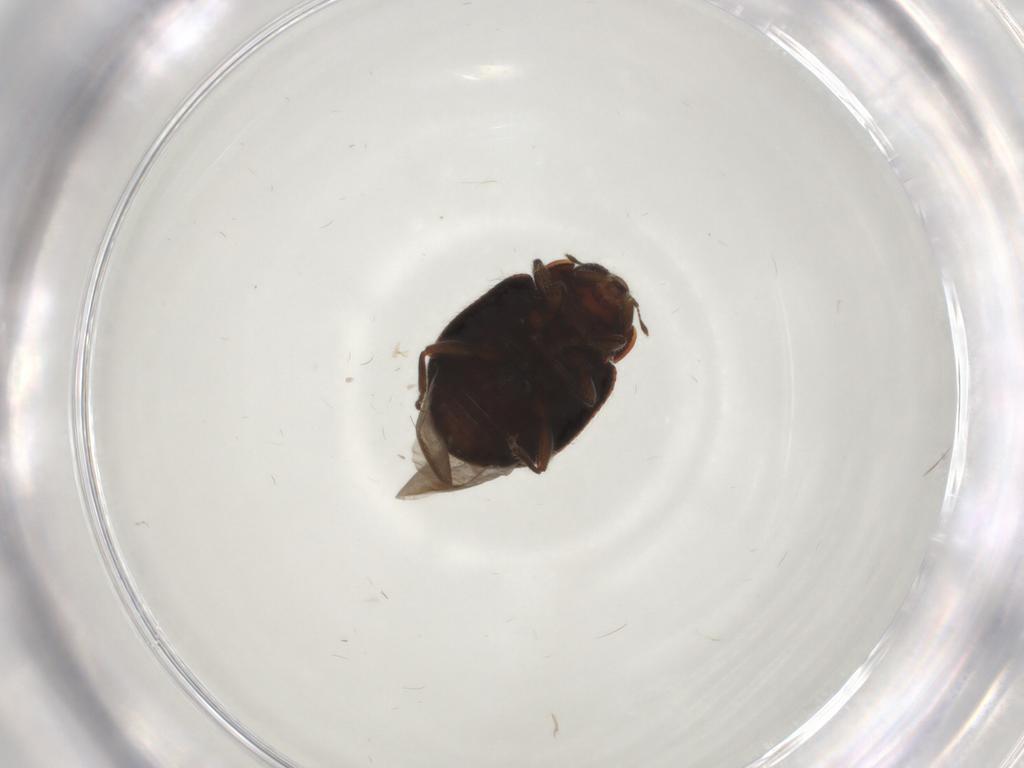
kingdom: Animalia
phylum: Arthropoda
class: Insecta
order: Coleoptera
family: Coccinellidae
